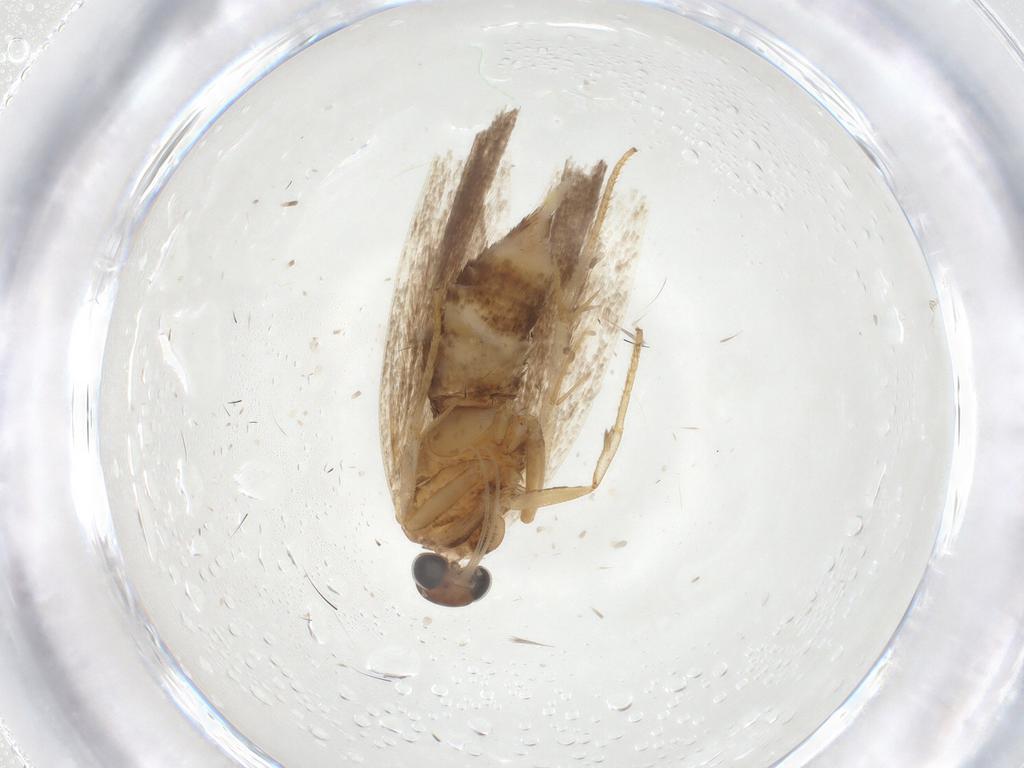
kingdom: Animalia
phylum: Arthropoda
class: Insecta
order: Lepidoptera
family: Gelechiidae
